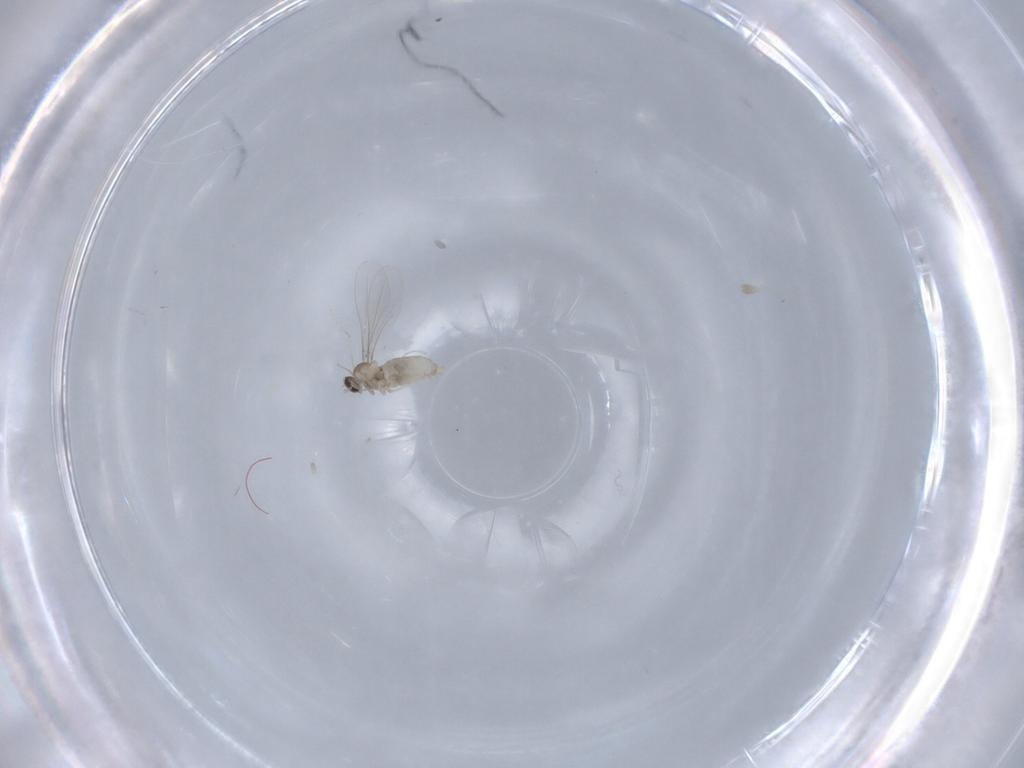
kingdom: Animalia
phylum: Arthropoda
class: Insecta
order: Diptera
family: Cecidomyiidae
